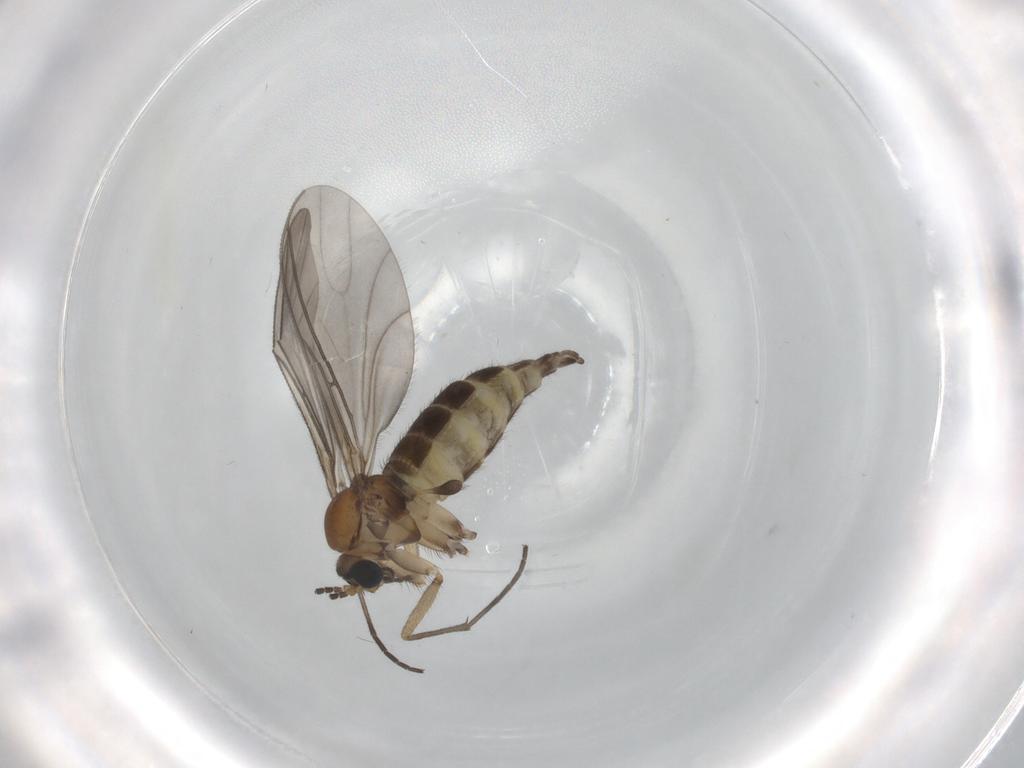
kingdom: Animalia
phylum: Arthropoda
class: Insecta
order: Diptera
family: Sciaridae
